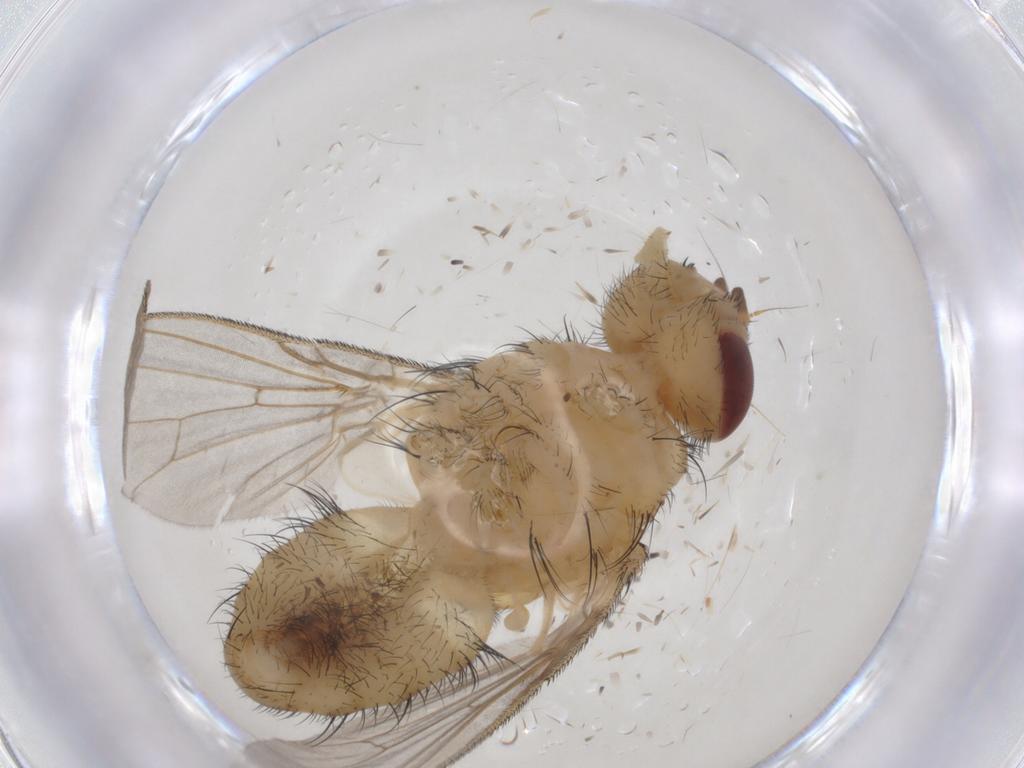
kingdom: Animalia
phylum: Arthropoda
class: Insecta
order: Diptera
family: Tachinidae
